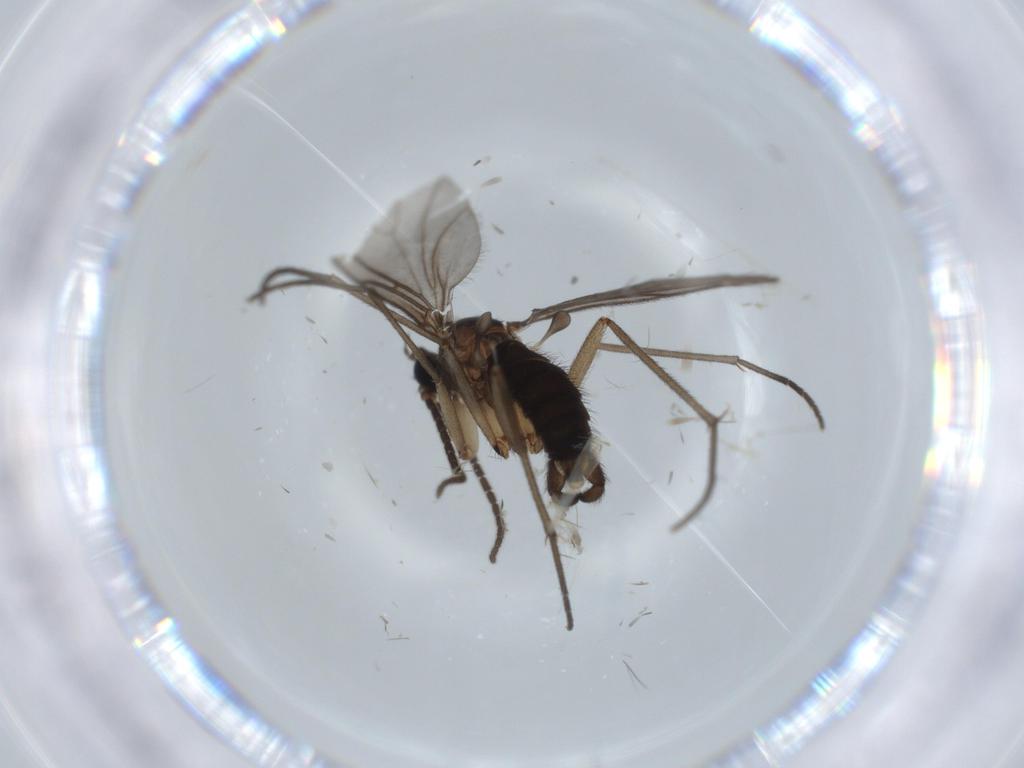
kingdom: Animalia
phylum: Arthropoda
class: Insecta
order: Diptera
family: Sciaridae
